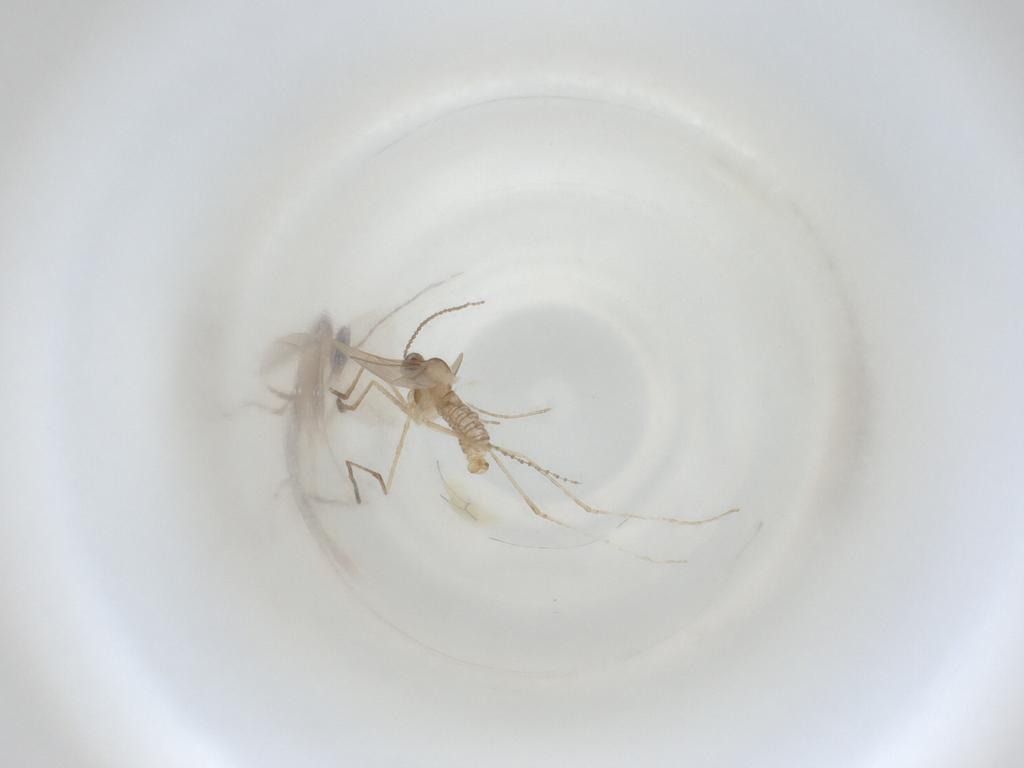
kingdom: Animalia
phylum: Arthropoda
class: Insecta
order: Diptera
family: Cecidomyiidae
